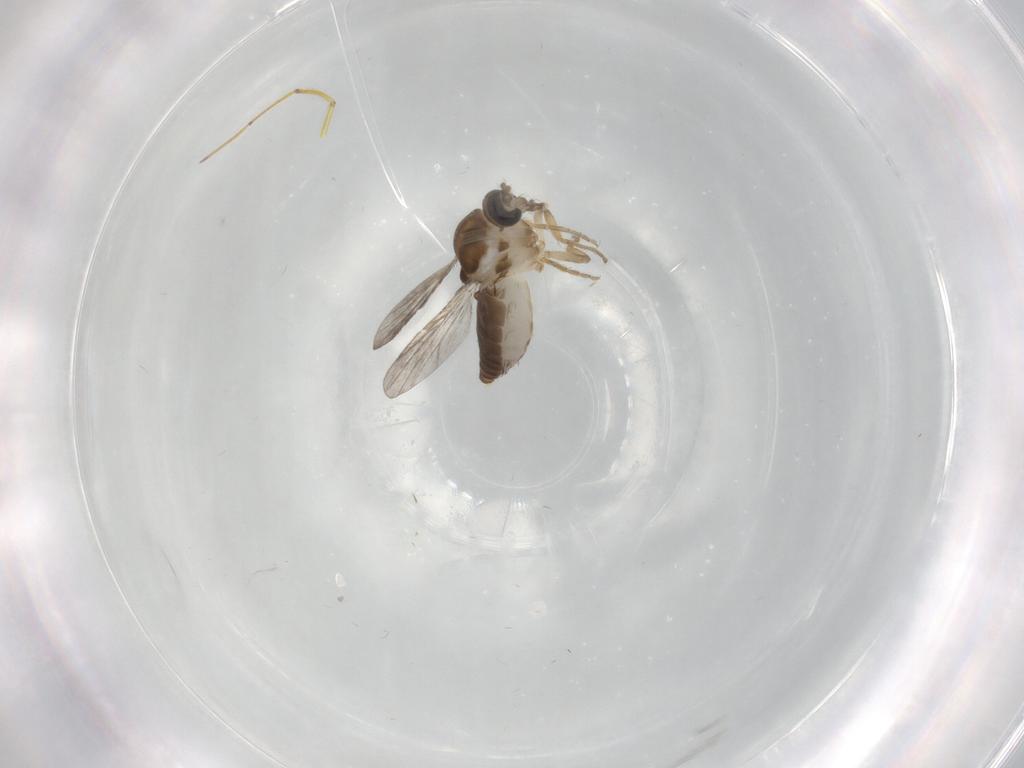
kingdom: Animalia
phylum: Arthropoda
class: Insecta
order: Diptera
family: Ceratopogonidae
